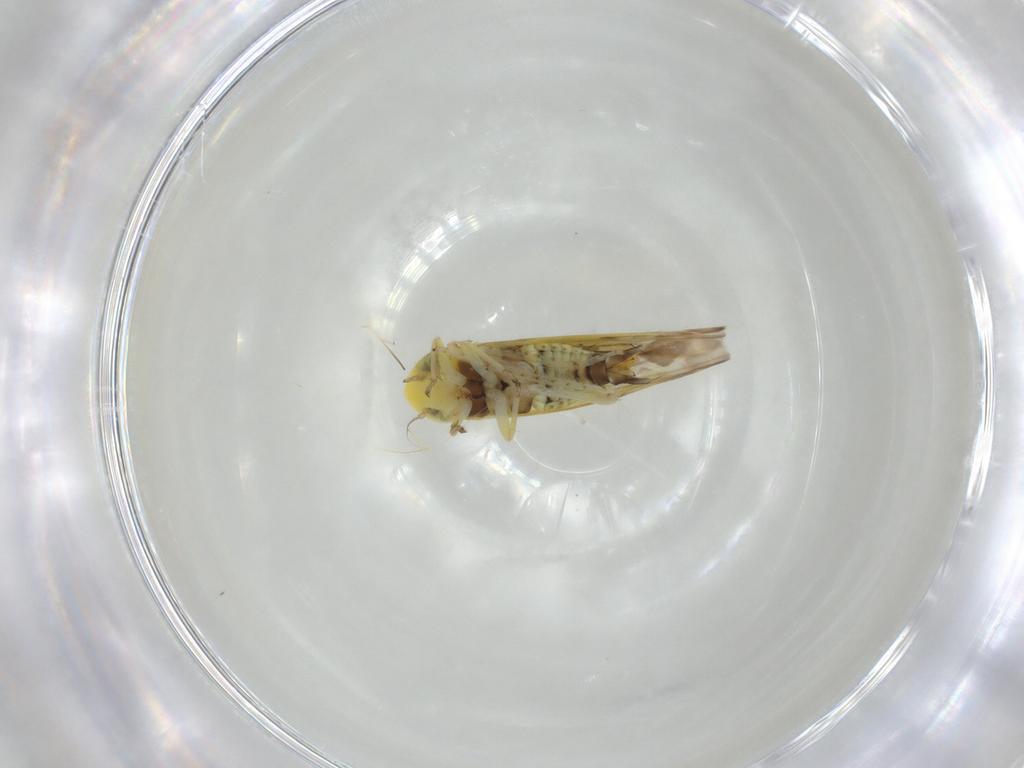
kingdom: Animalia
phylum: Arthropoda
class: Insecta
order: Hemiptera
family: Cicadellidae
